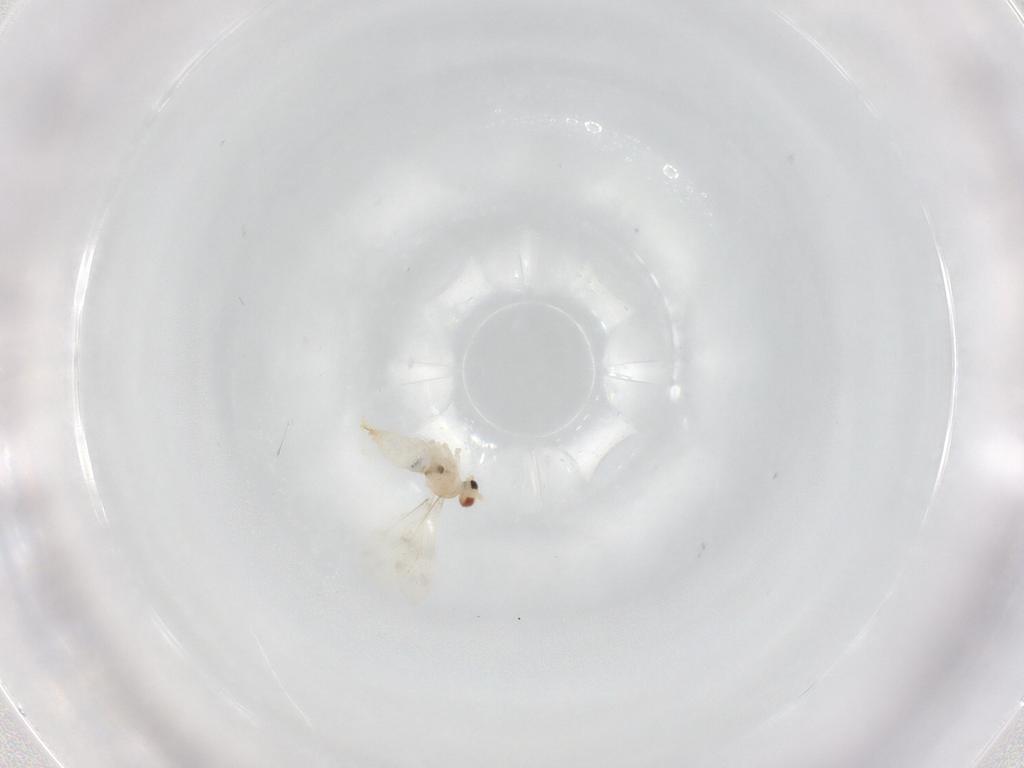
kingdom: Animalia
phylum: Arthropoda
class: Insecta
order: Diptera
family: Cecidomyiidae
